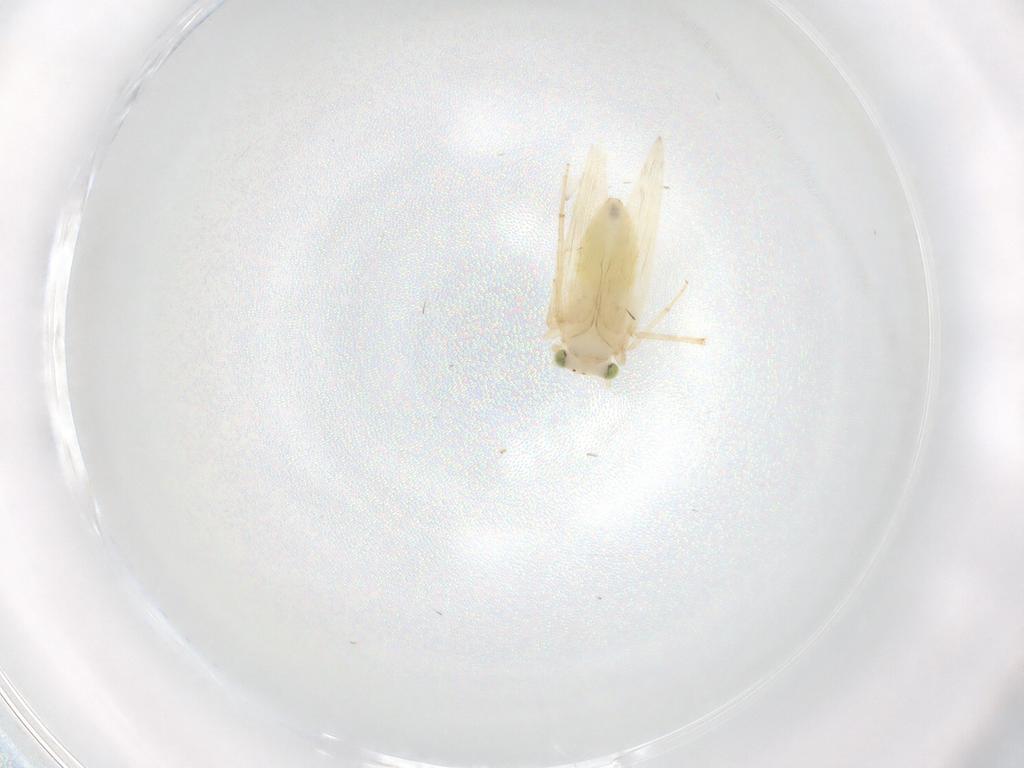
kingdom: Animalia
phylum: Arthropoda
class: Insecta
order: Psocodea
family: Lepidopsocidae
